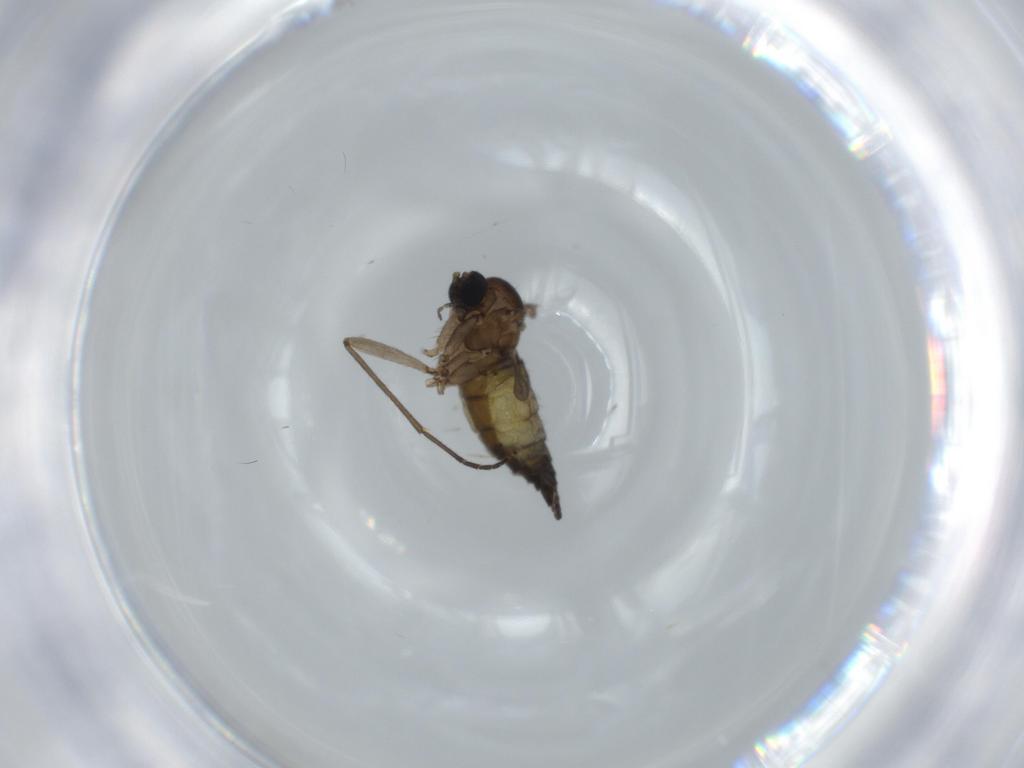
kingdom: Animalia
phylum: Arthropoda
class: Insecta
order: Diptera
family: Sciaridae
